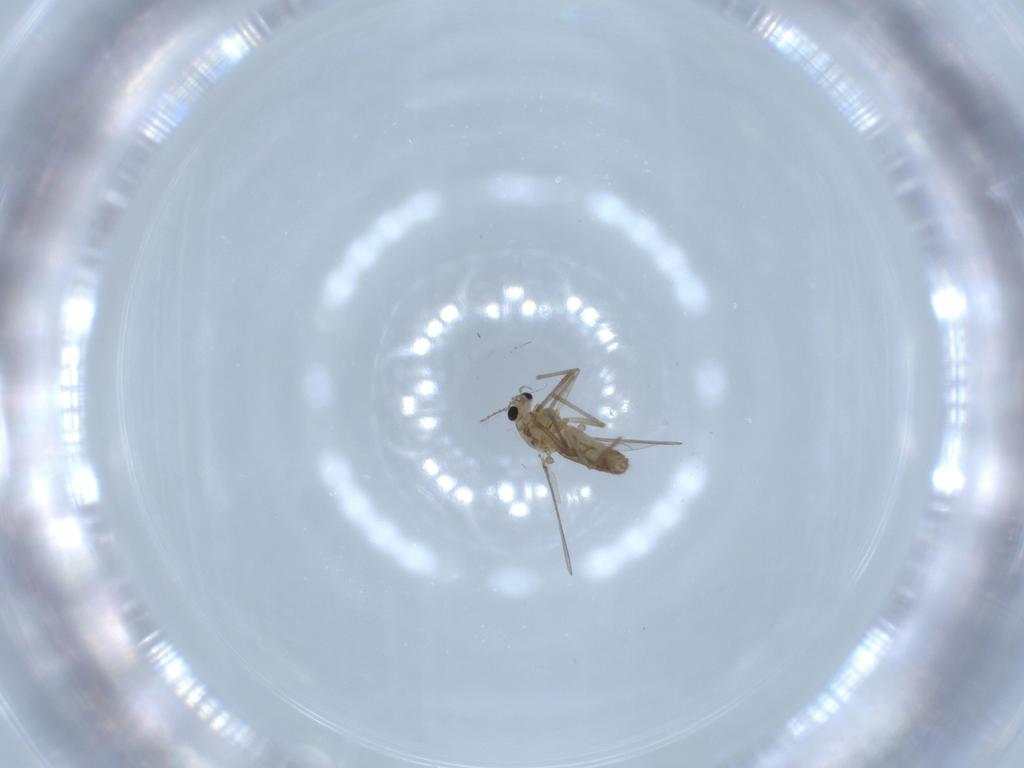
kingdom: Animalia
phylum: Arthropoda
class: Insecta
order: Diptera
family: Chironomidae
